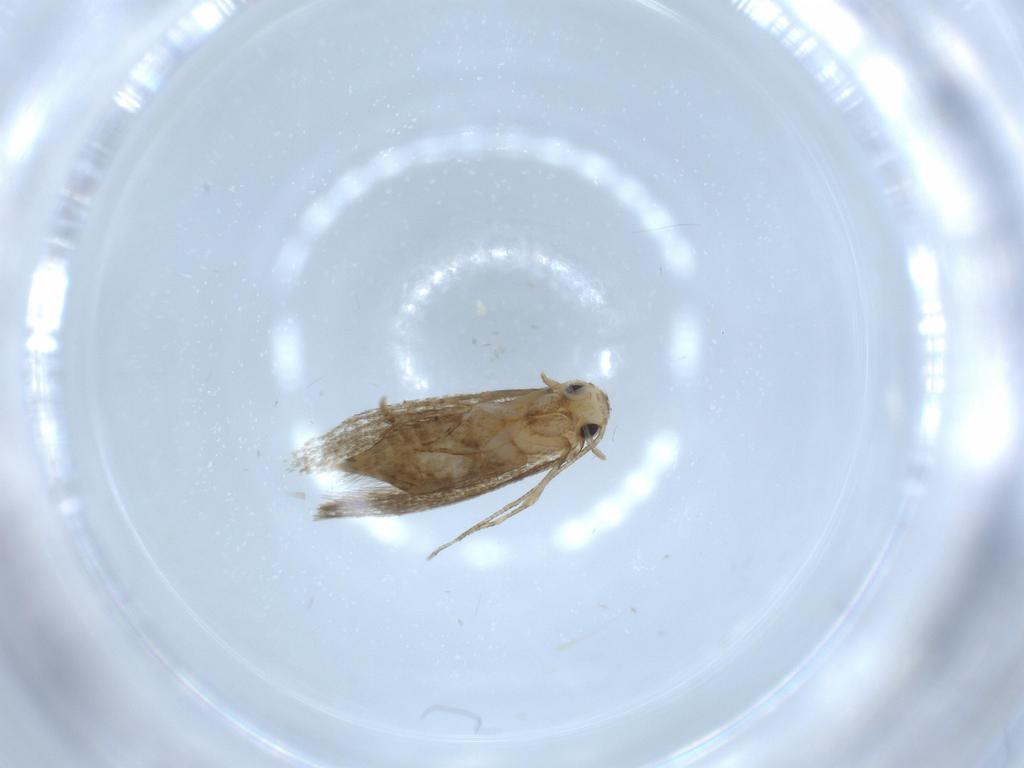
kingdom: Animalia
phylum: Arthropoda
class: Insecta
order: Lepidoptera
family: Tineidae
